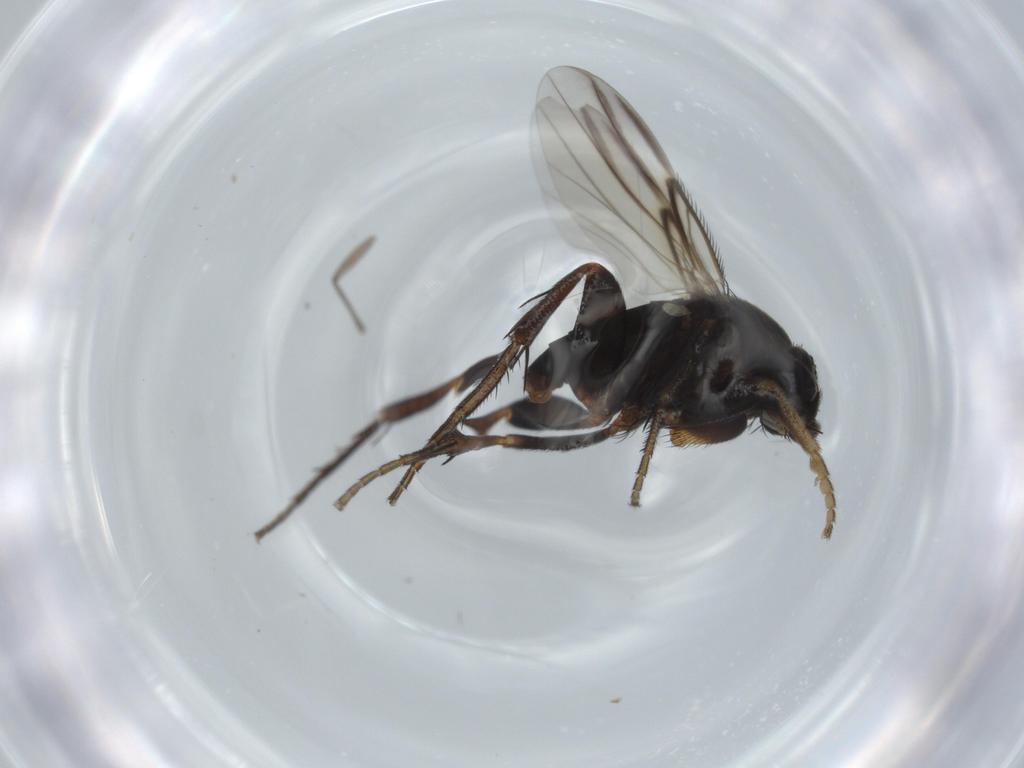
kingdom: Animalia
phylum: Arthropoda
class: Insecta
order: Diptera
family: Phoridae
